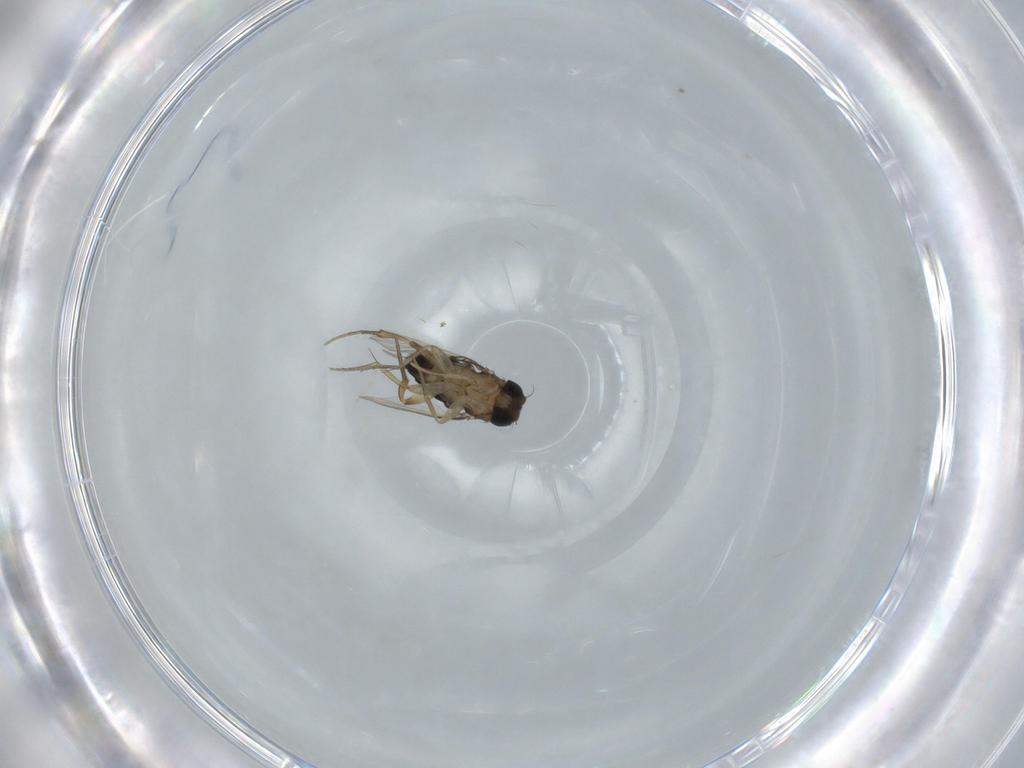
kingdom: Animalia
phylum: Arthropoda
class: Insecta
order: Diptera
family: Phoridae
